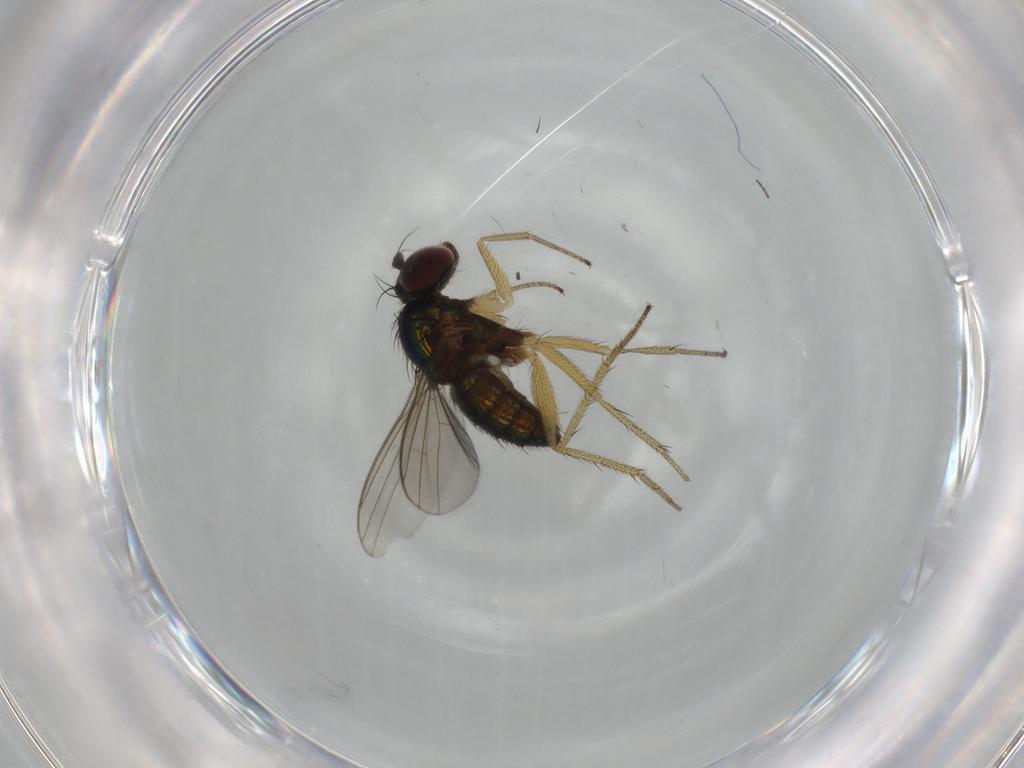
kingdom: Animalia
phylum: Arthropoda
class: Insecta
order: Diptera
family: Dolichopodidae
